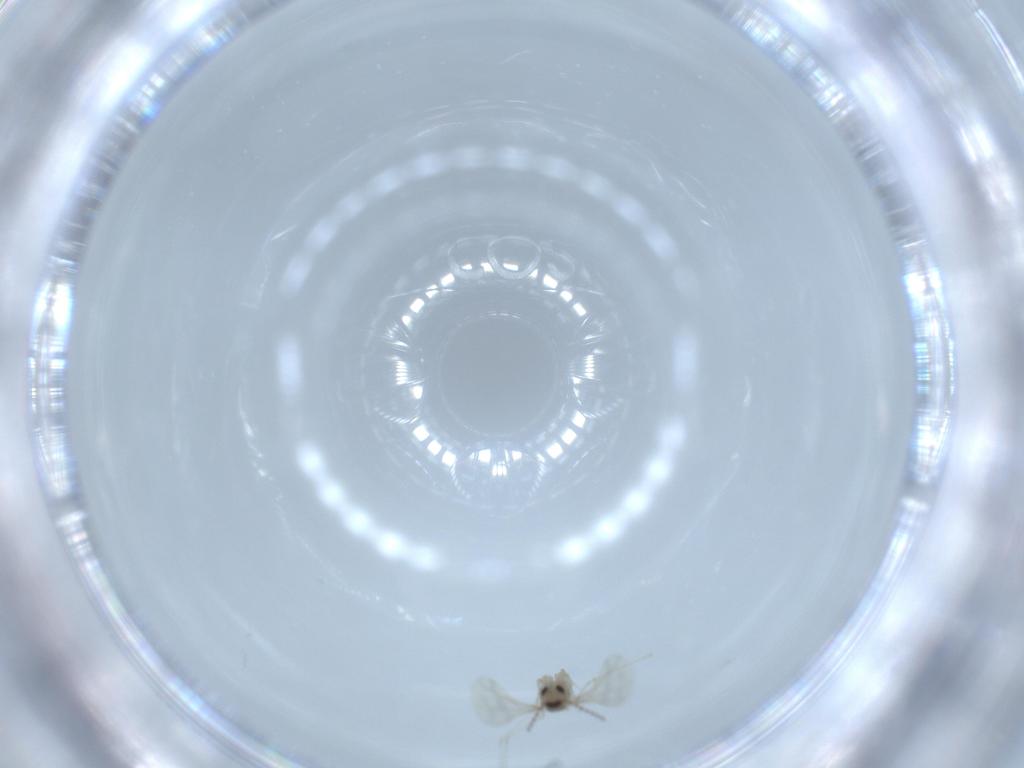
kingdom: Animalia
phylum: Arthropoda
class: Insecta
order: Diptera
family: Cecidomyiidae
